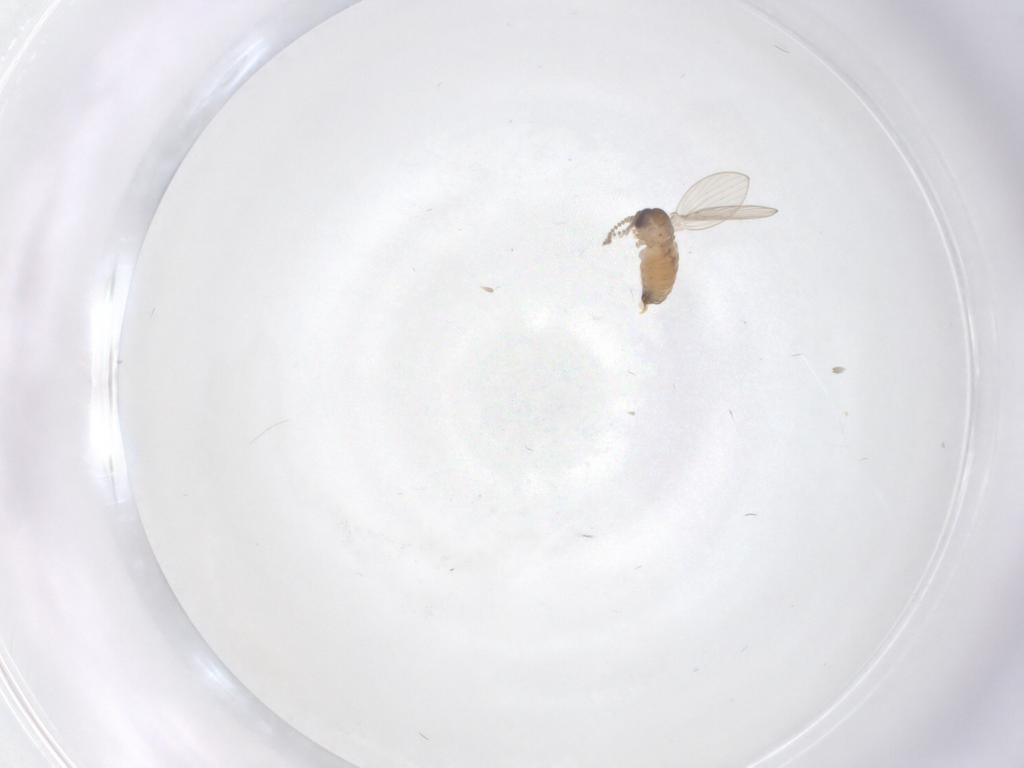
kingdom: Animalia
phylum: Arthropoda
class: Insecta
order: Diptera
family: Psychodidae
